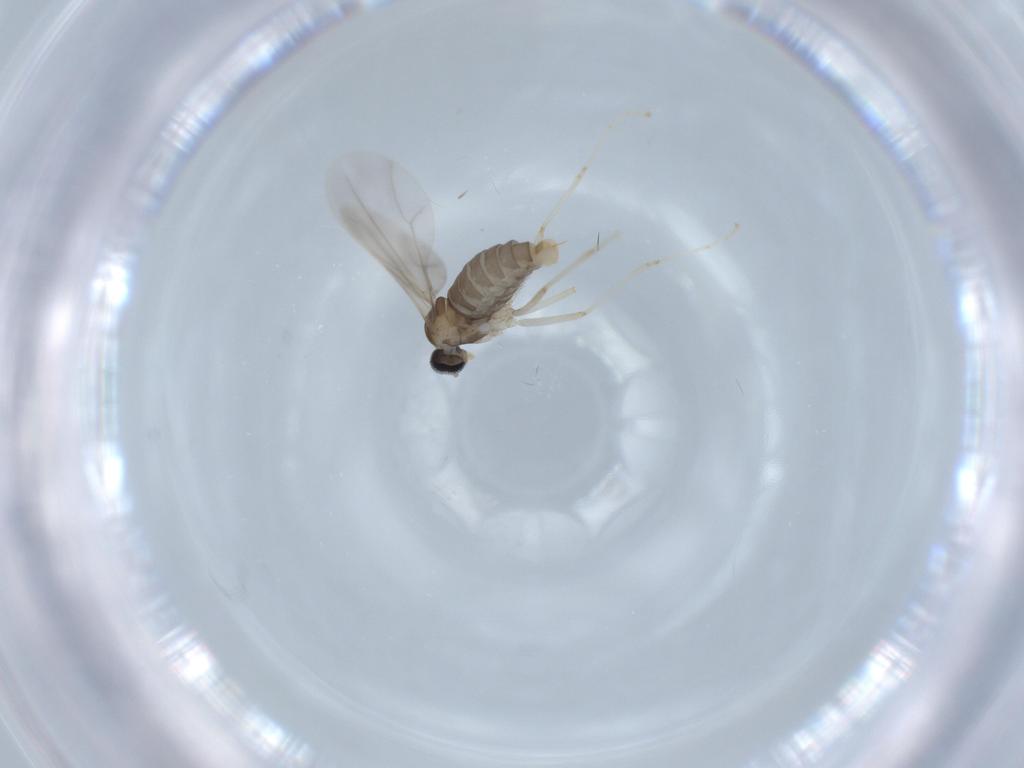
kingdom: Animalia
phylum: Arthropoda
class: Insecta
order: Diptera
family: Cecidomyiidae
